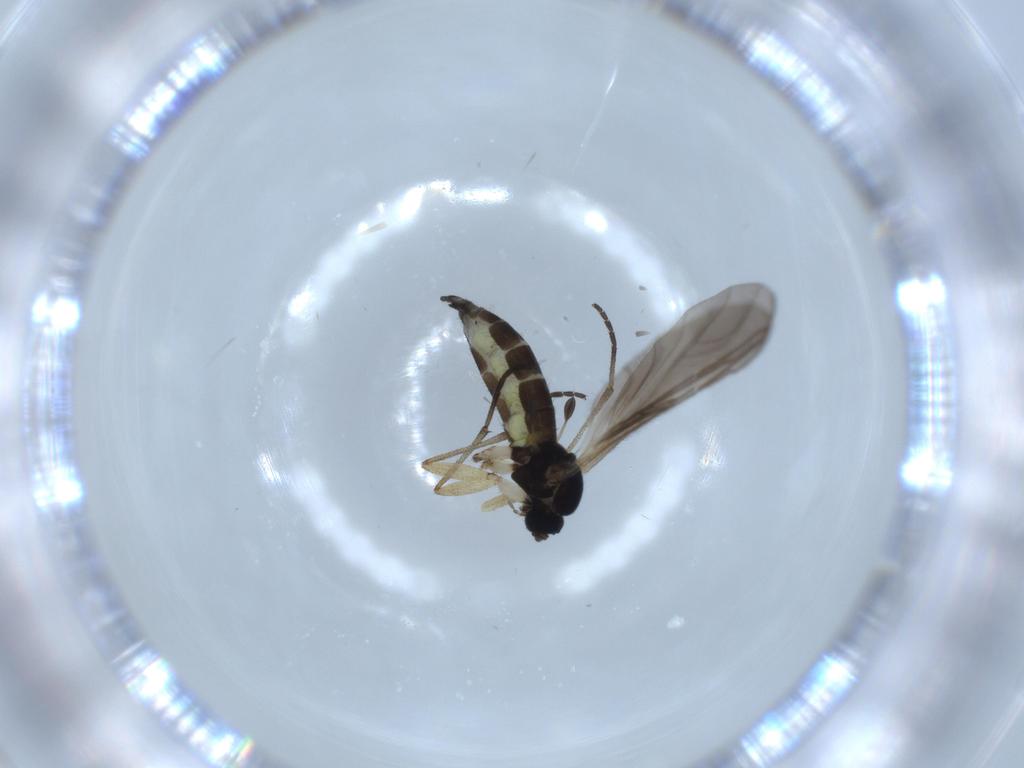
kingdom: Animalia
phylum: Arthropoda
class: Insecta
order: Diptera
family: Sciaridae
